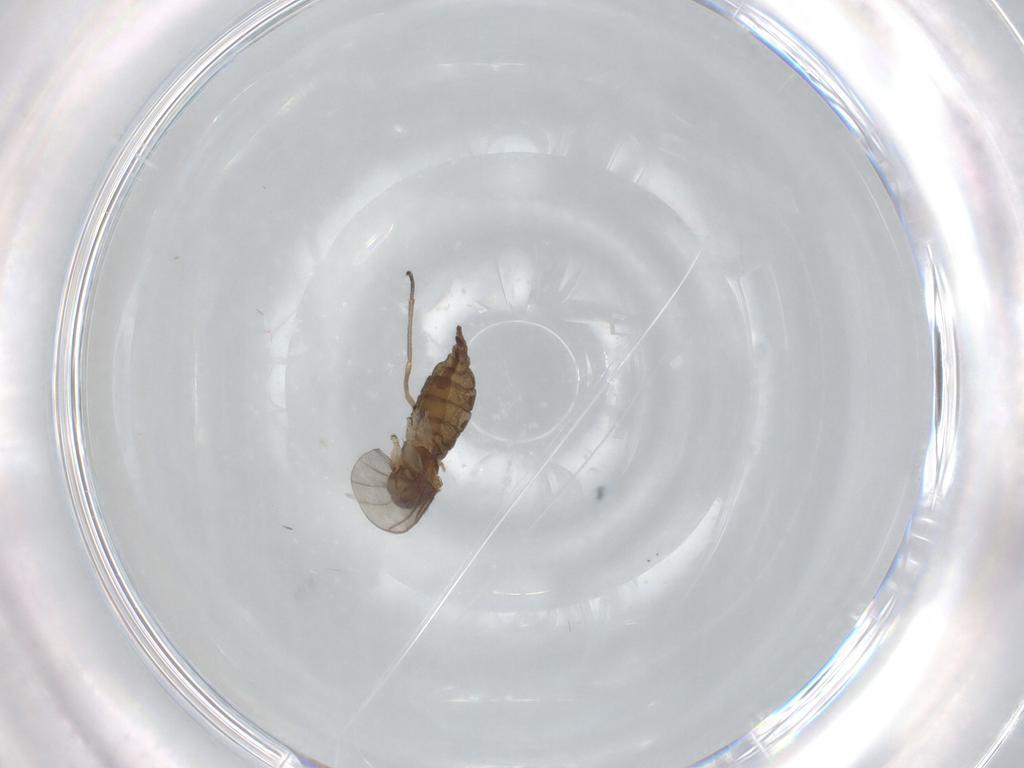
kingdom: Animalia
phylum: Arthropoda
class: Insecta
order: Diptera
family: Sciaridae
